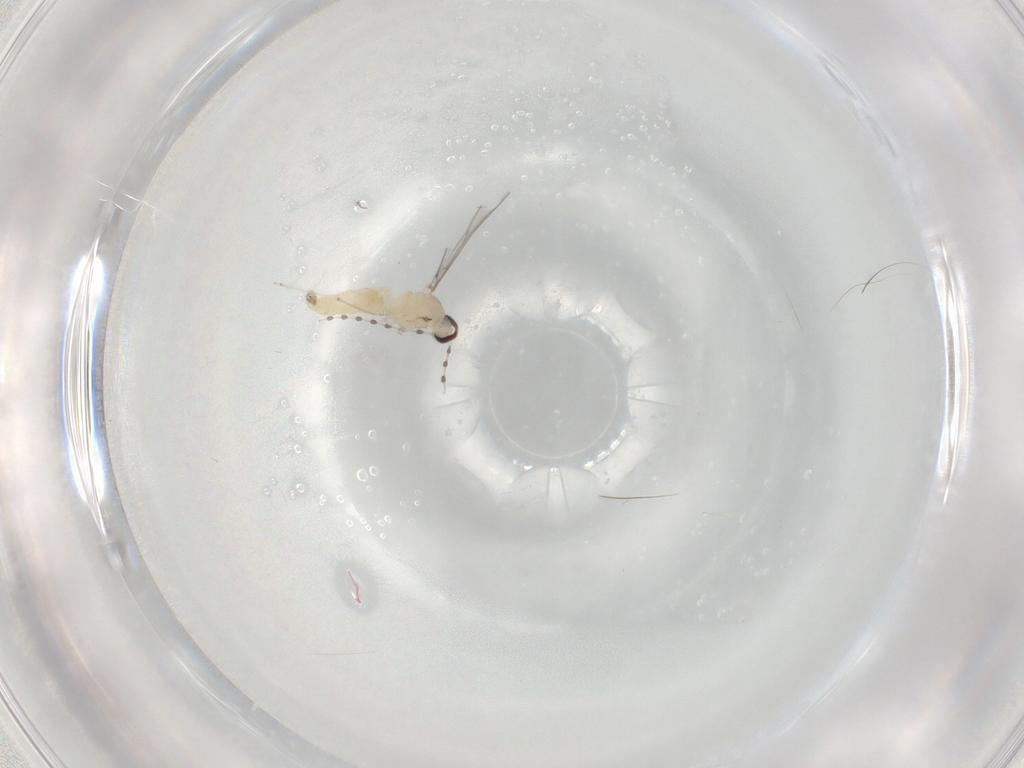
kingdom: Animalia
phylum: Arthropoda
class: Insecta
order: Diptera
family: Cecidomyiidae
